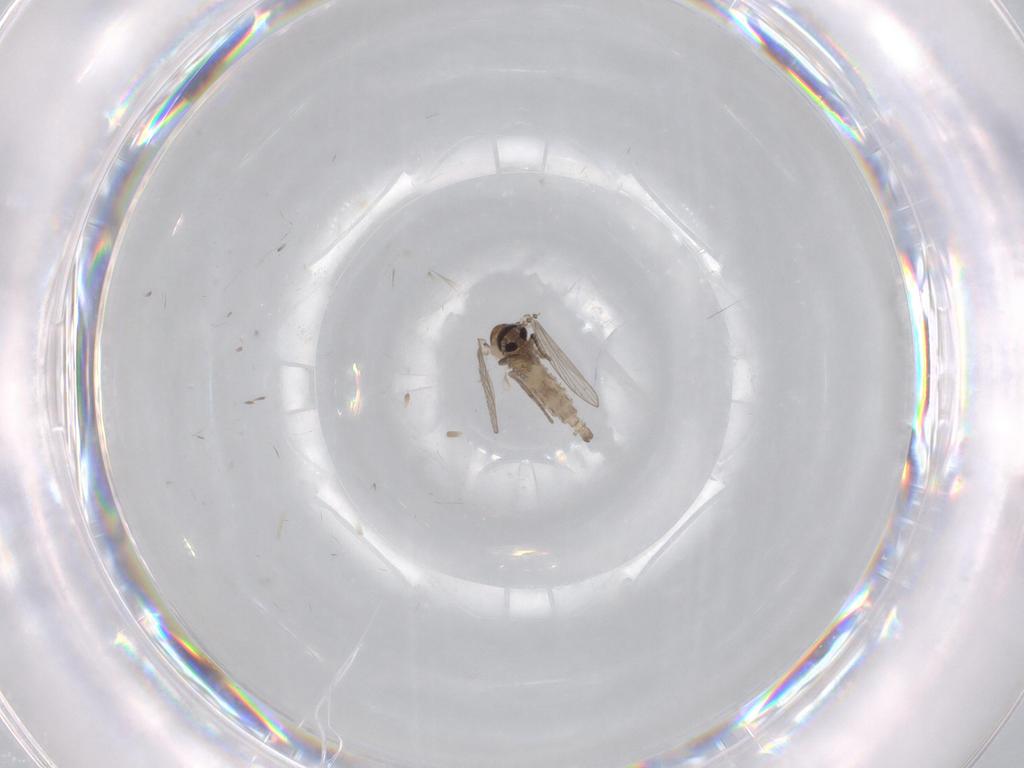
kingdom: Animalia
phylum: Arthropoda
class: Insecta
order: Diptera
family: Psychodidae
